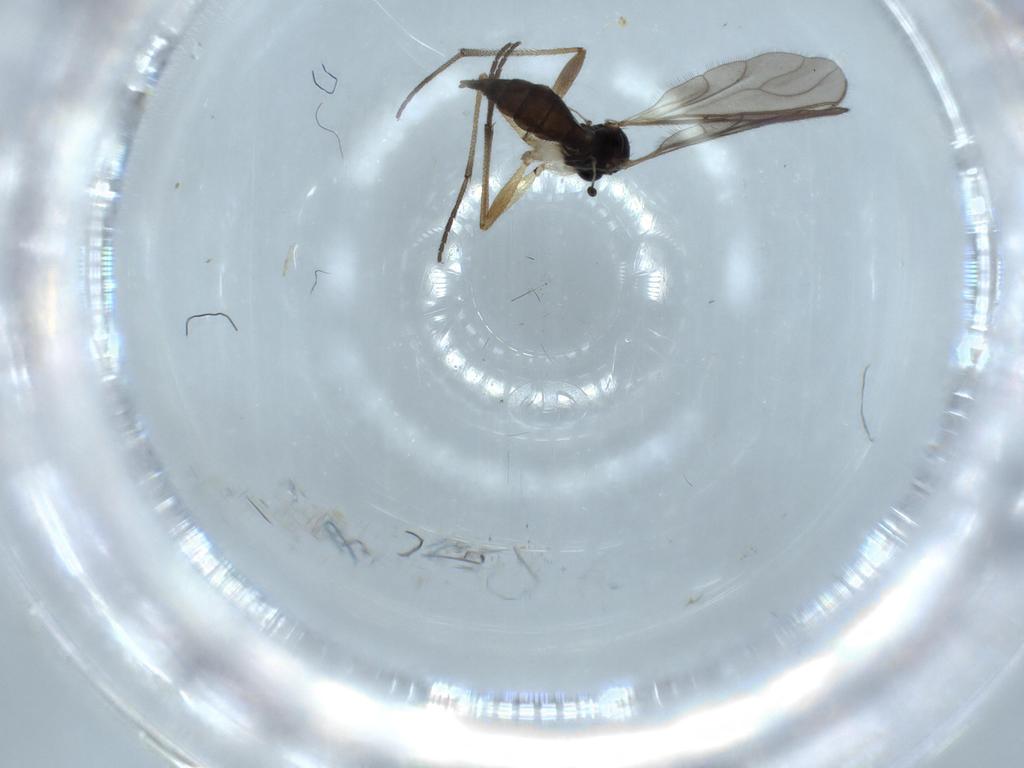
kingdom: Animalia
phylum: Arthropoda
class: Insecta
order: Diptera
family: Sciaridae
